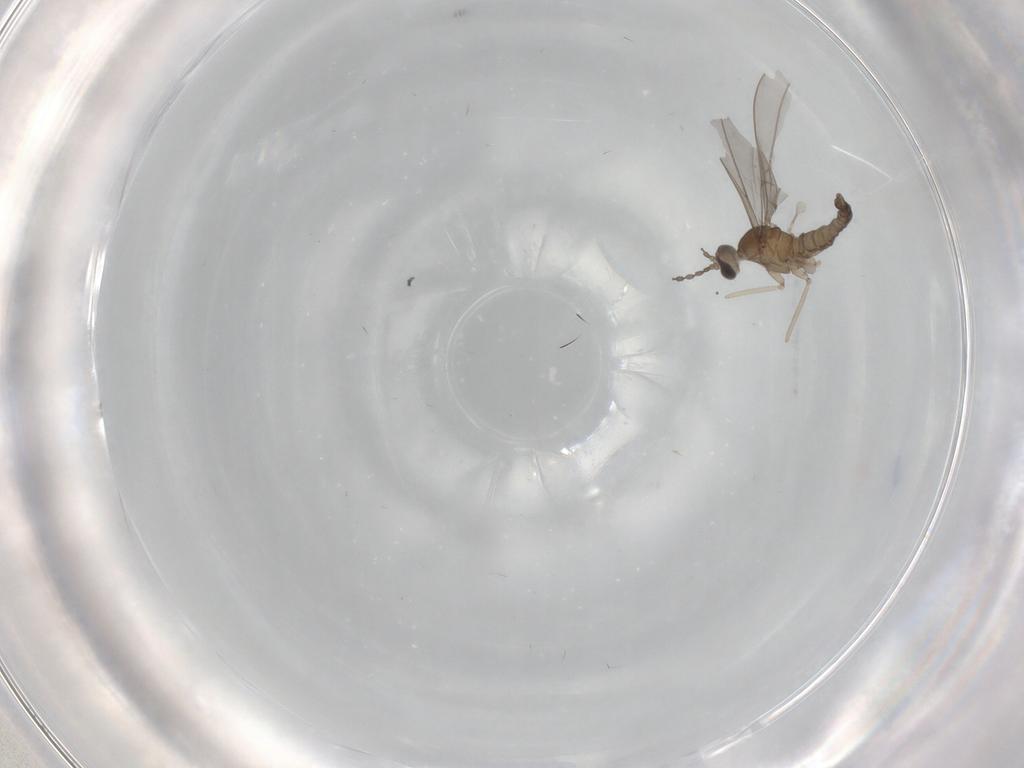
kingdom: Animalia
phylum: Arthropoda
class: Insecta
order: Diptera
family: Cecidomyiidae
